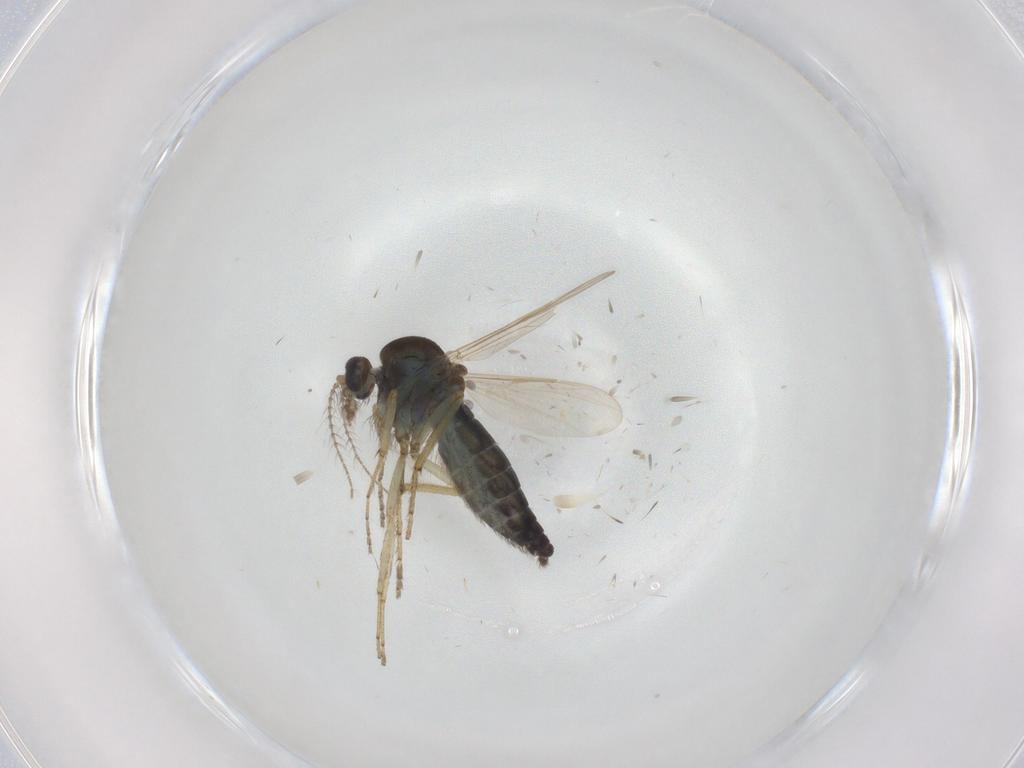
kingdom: Animalia
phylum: Arthropoda
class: Insecta
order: Diptera
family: Ceratopogonidae
